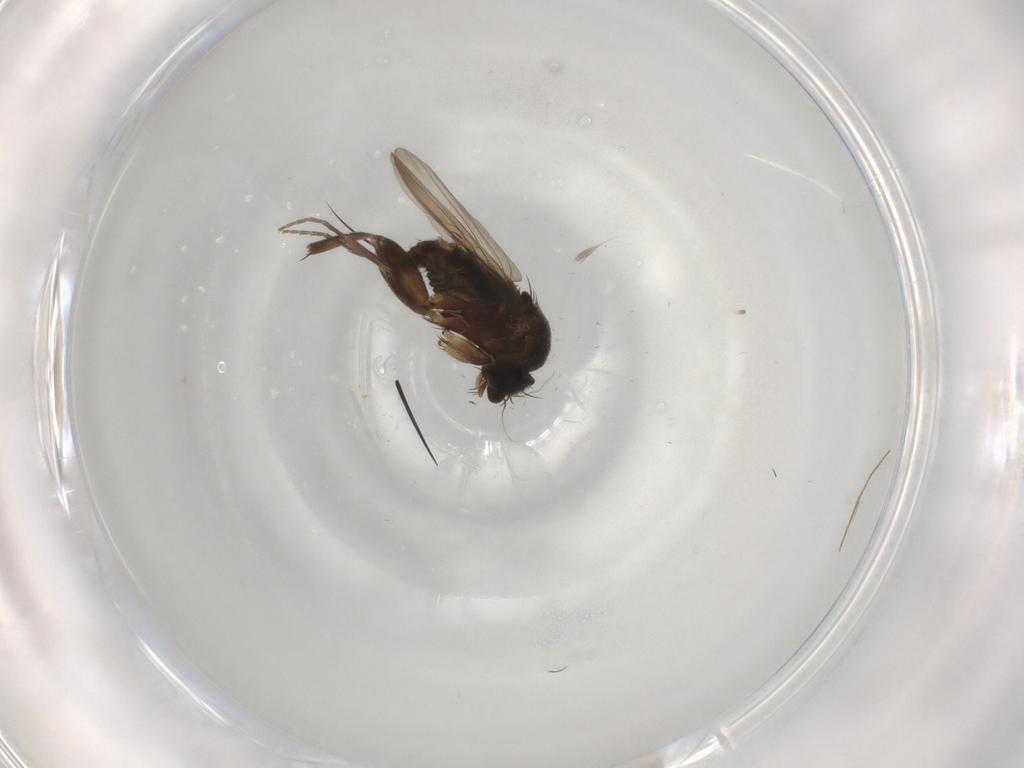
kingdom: Animalia
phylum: Arthropoda
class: Insecta
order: Diptera
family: Phoridae
